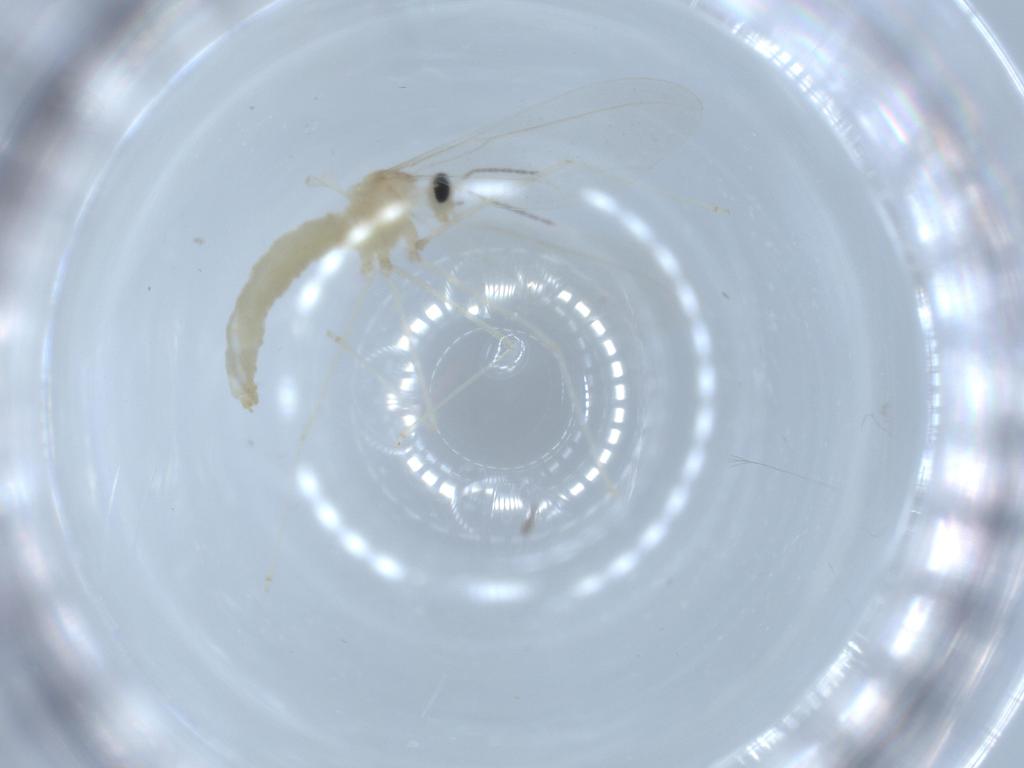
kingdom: Animalia
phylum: Arthropoda
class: Insecta
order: Diptera
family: Cecidomyiidae
